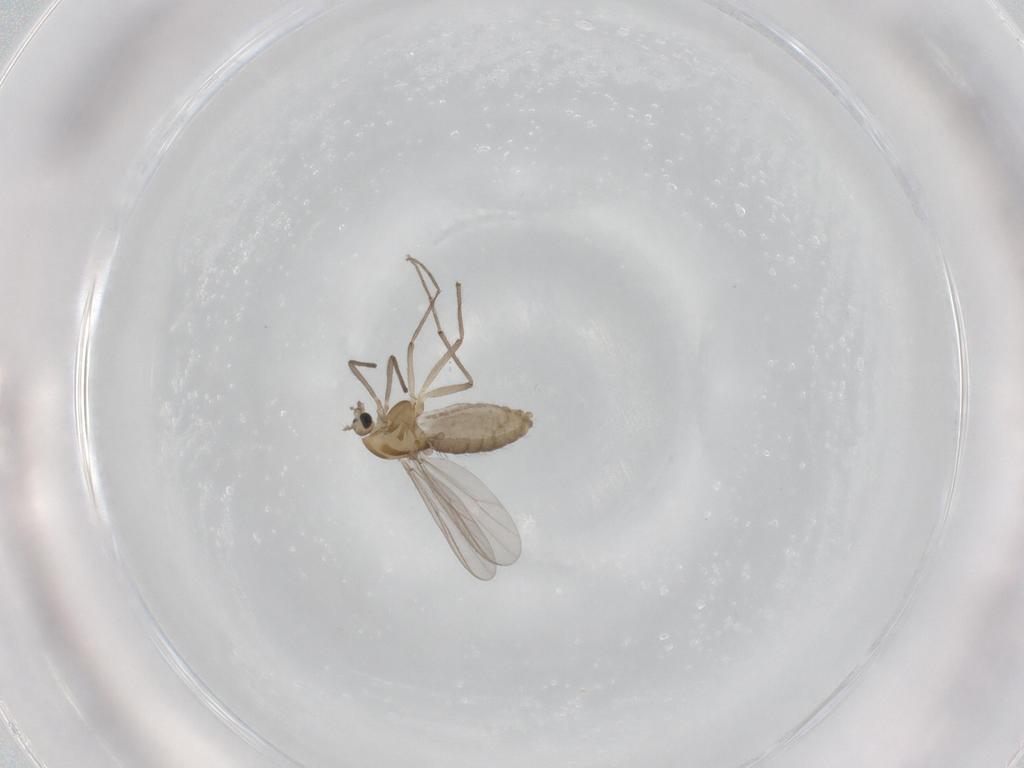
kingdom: Animalia
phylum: Arthropoda
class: Insecta
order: Diptera
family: Chironomidae
